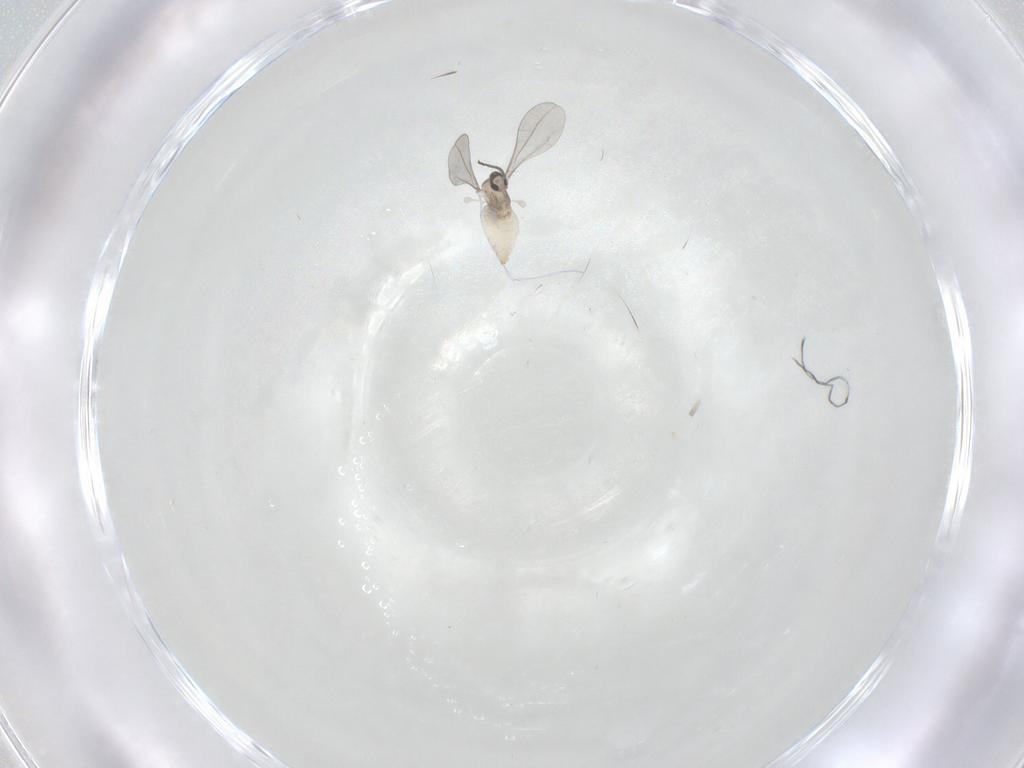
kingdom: Animalia
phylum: Arthropoda
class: Insecta
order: Diptera
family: Cecidomyiidae
